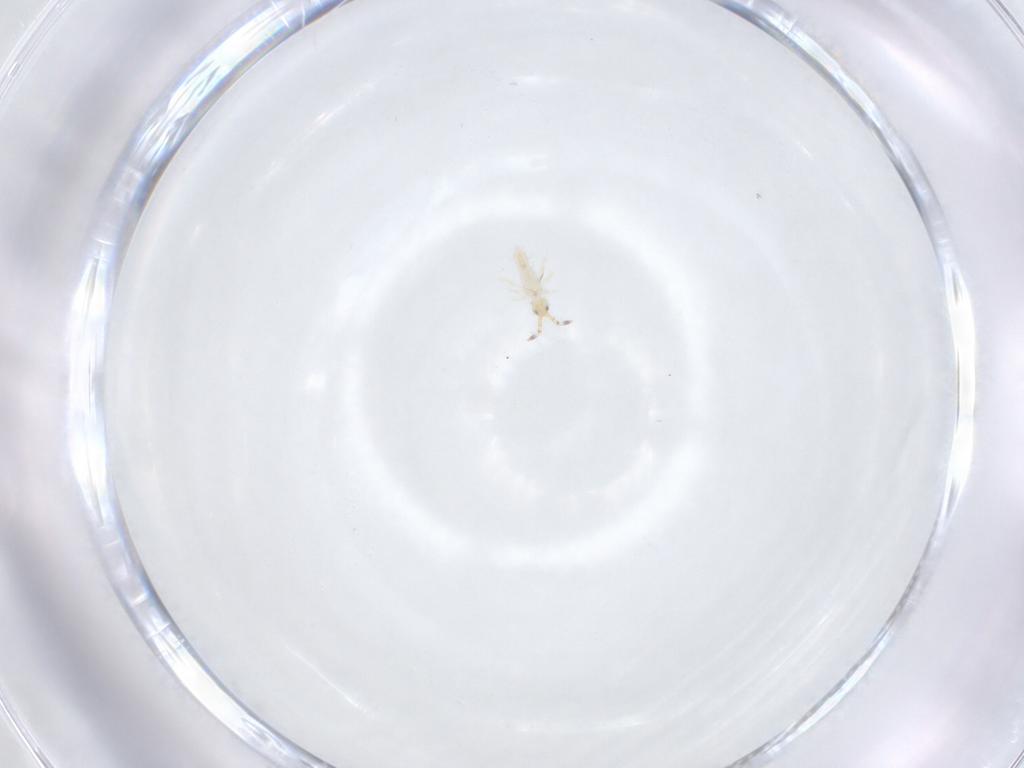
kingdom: Animalia
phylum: Arthropoda
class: Collembola
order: Entomobryomorpha
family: Entomobryidae
